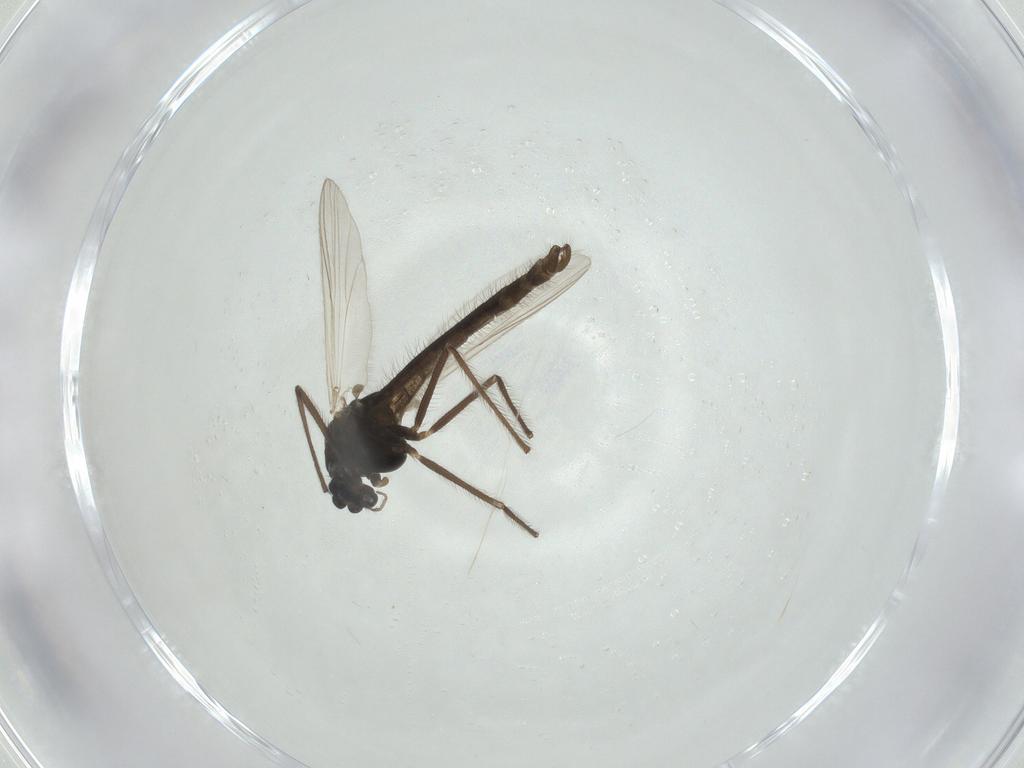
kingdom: Animalia
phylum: Arthropoda
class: Insecta
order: Diptera
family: Chironomidae
